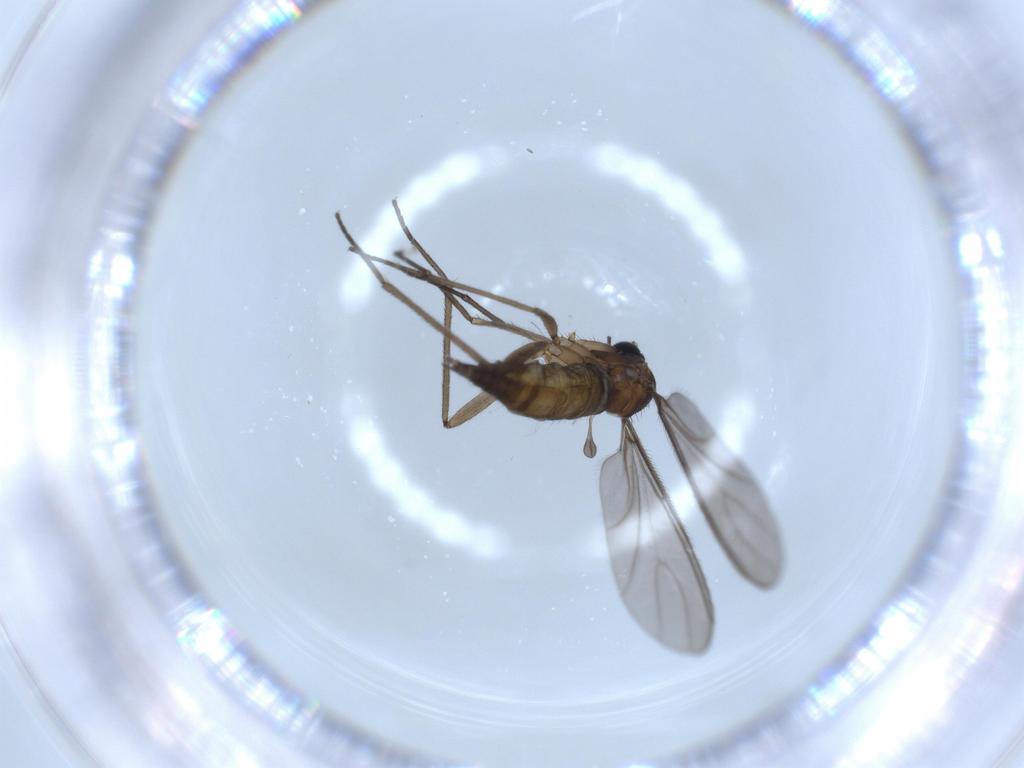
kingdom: Animalia
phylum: Arthropoda
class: Insecta
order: Diptera
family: Sciaridae
